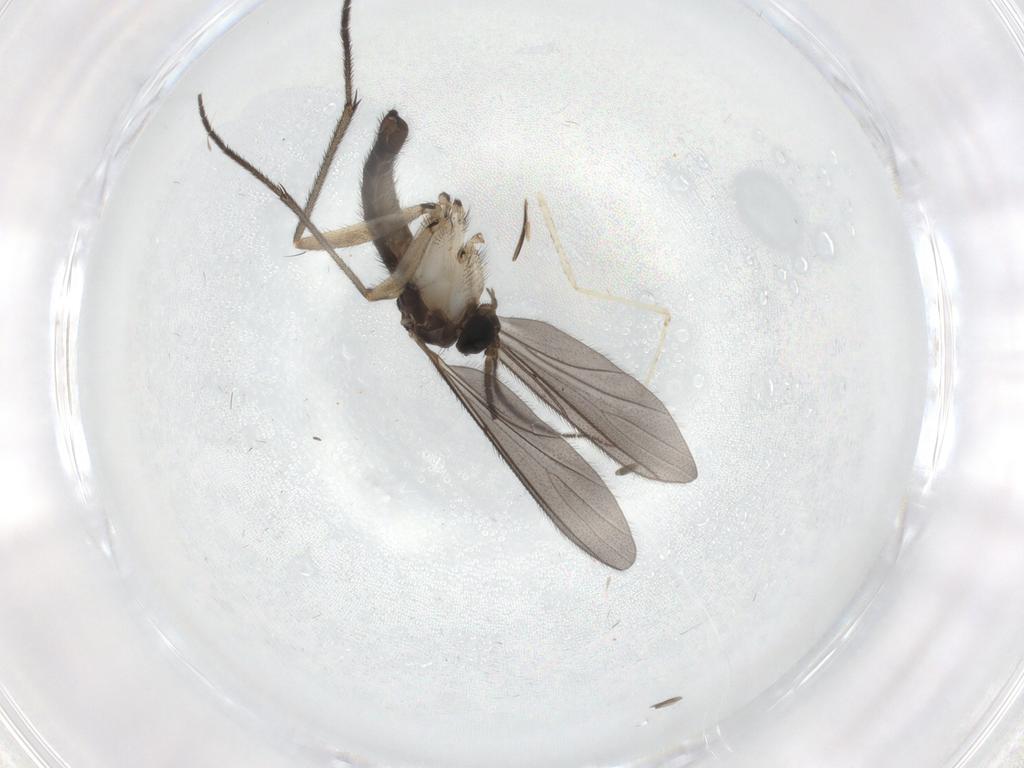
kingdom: Animalia
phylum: Arthropoda
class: Insecta
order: Diptera
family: Sciaridae
